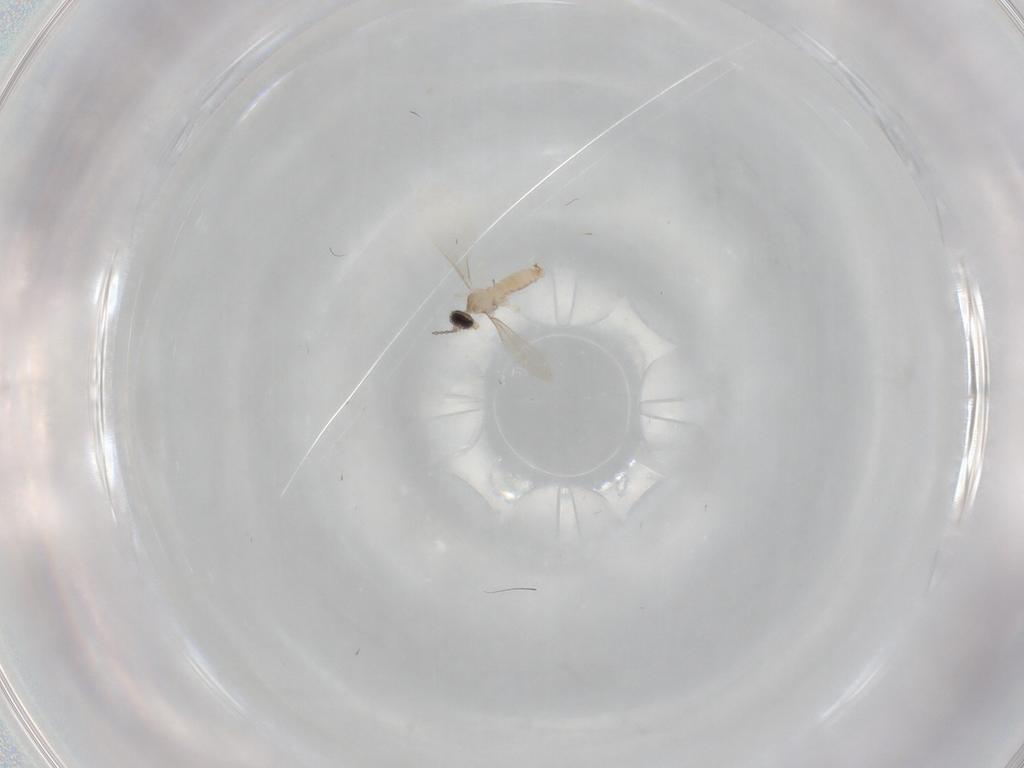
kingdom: Animalia
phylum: Arthropoda
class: Insecta
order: Diptera
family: Cecidomyiidae
